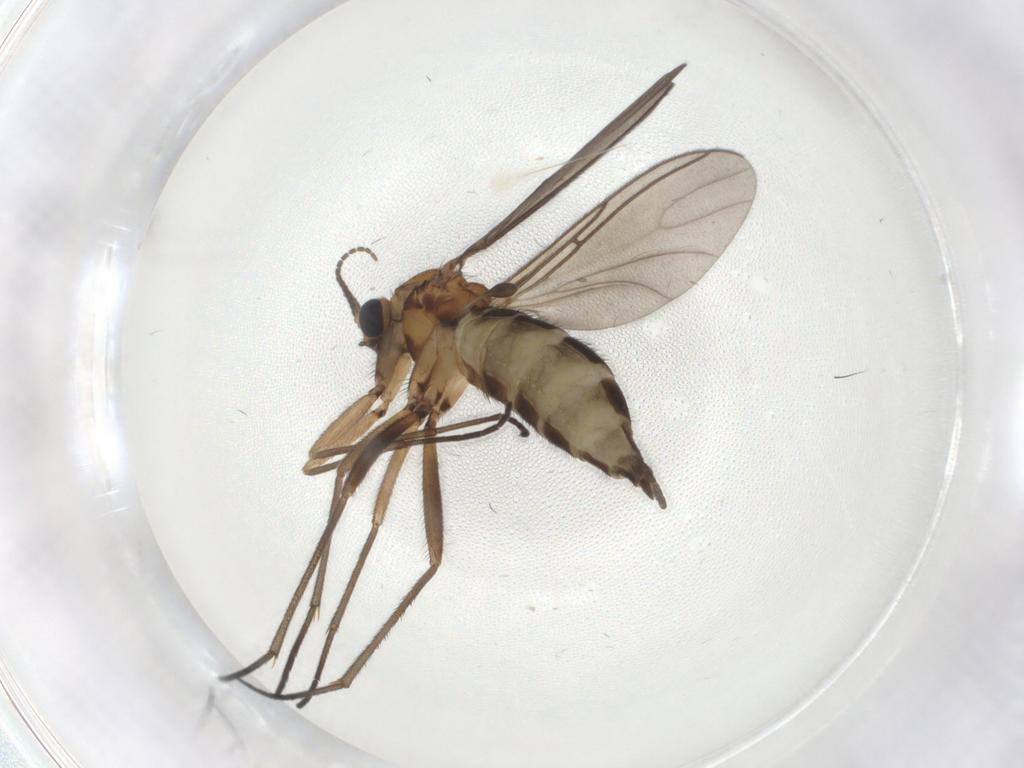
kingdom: Animalia
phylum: Arthropoda
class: Insecta
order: Diptera
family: Sciaridae
